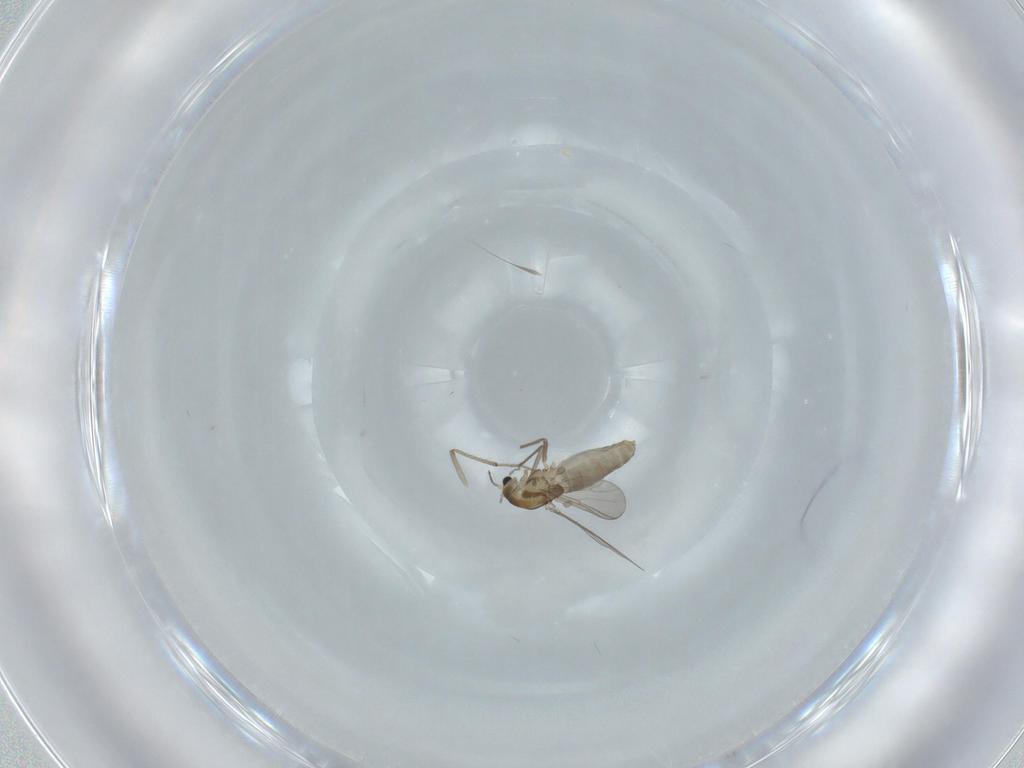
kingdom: Animalia
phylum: Arthropoda
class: Insecta
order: Diptera
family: Chironomidae
